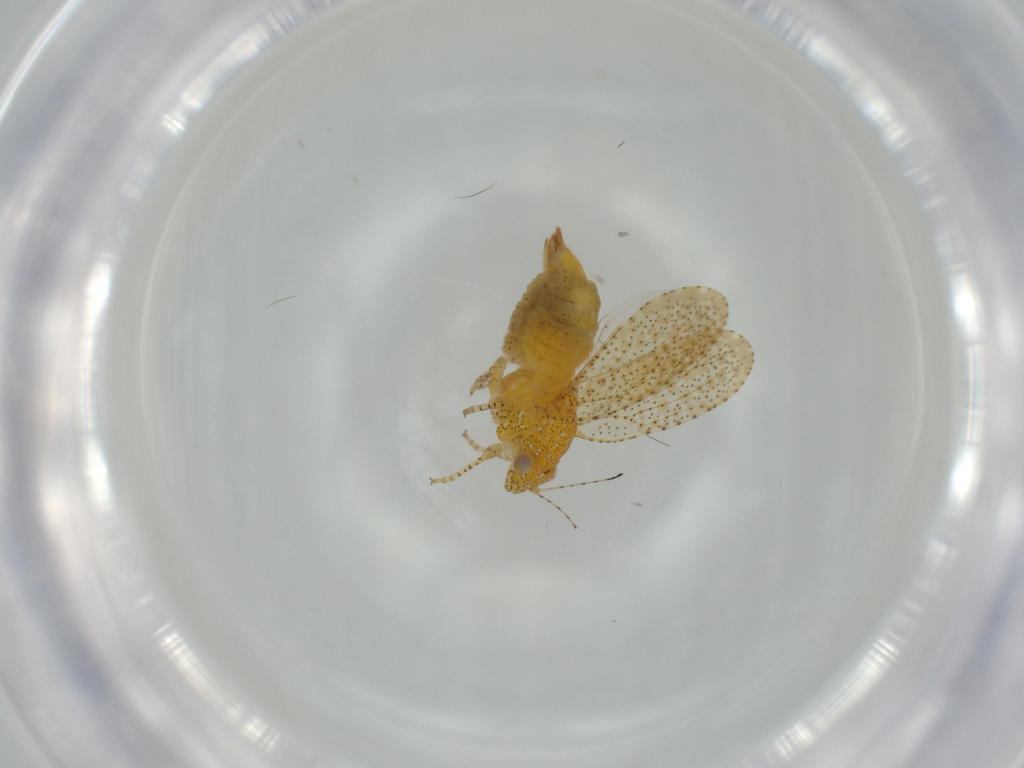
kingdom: Animalia
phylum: Arthropoda
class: Insecta
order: Hemiptera
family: Psyllidae
